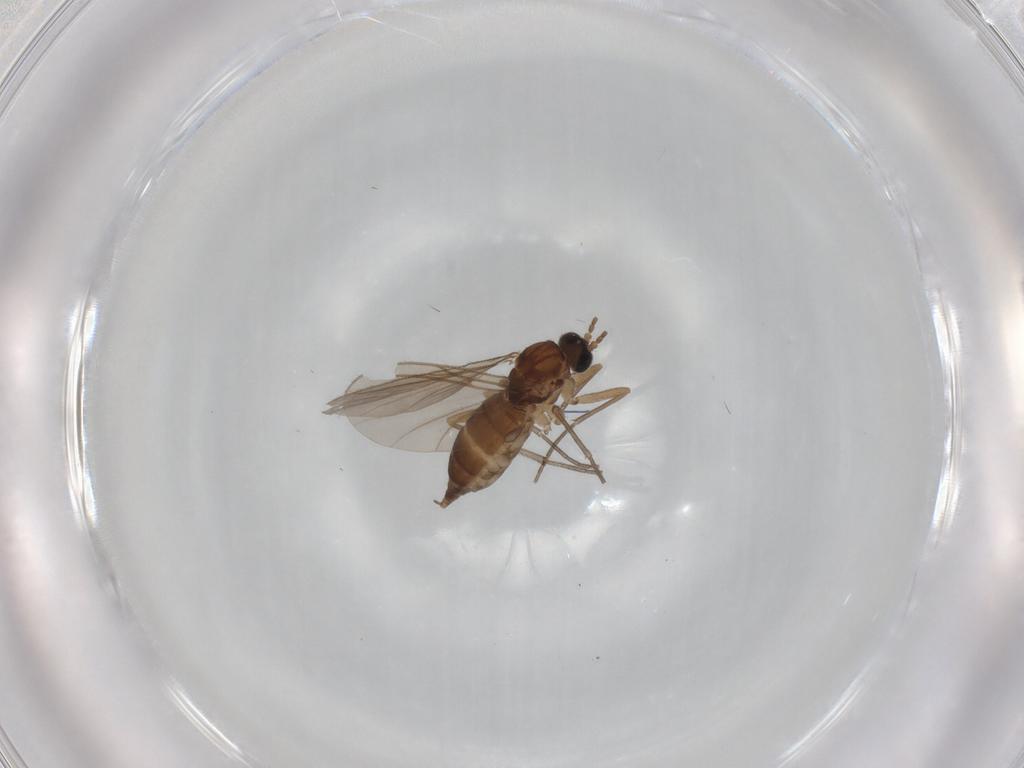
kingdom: Animalia
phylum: Arthropoda
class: Insecta
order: Diptera
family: Sciaridae
